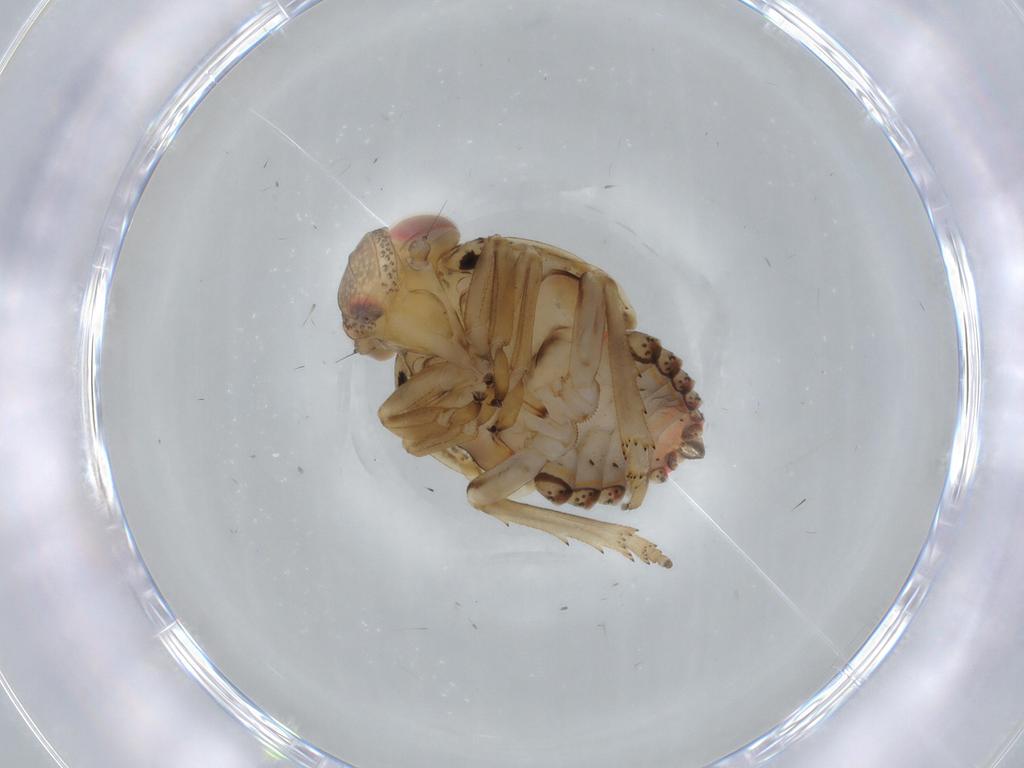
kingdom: Animalia
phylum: Arthropoda
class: Insecta
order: Hemiptera
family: Issidae
